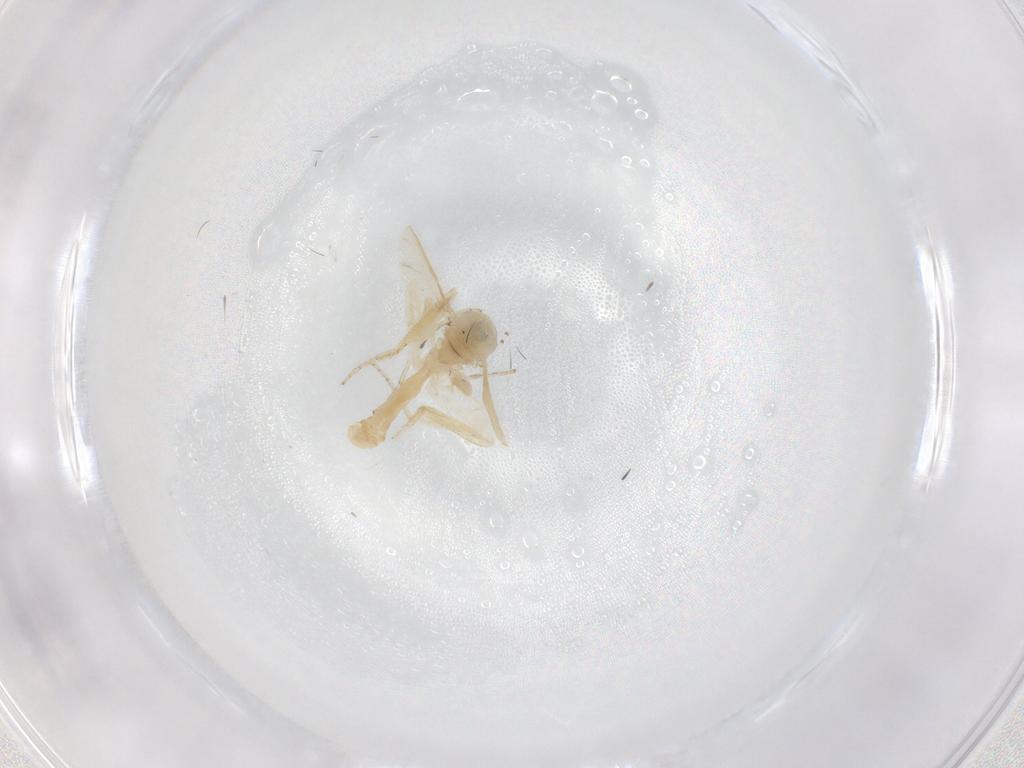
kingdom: Animalia
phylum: Arthropoda
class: Insecta
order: Diptera
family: Ceratopogonidae
